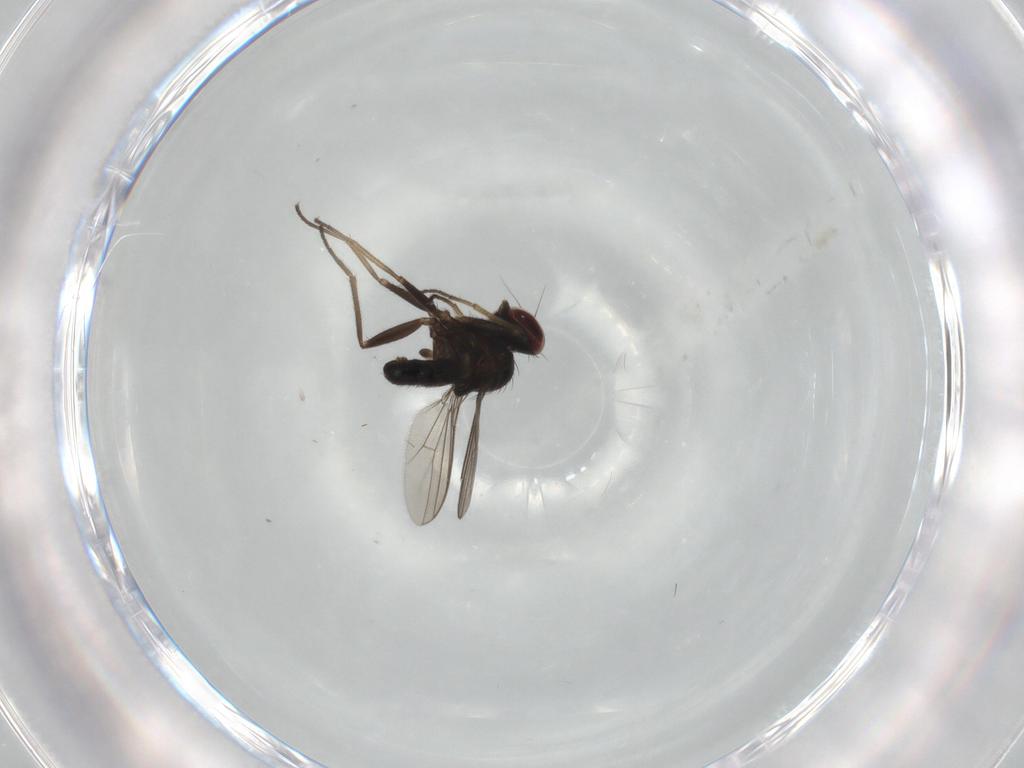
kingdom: Animalia
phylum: Arthropoda
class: Insecta
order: Diptera
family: Dolichopodidae
